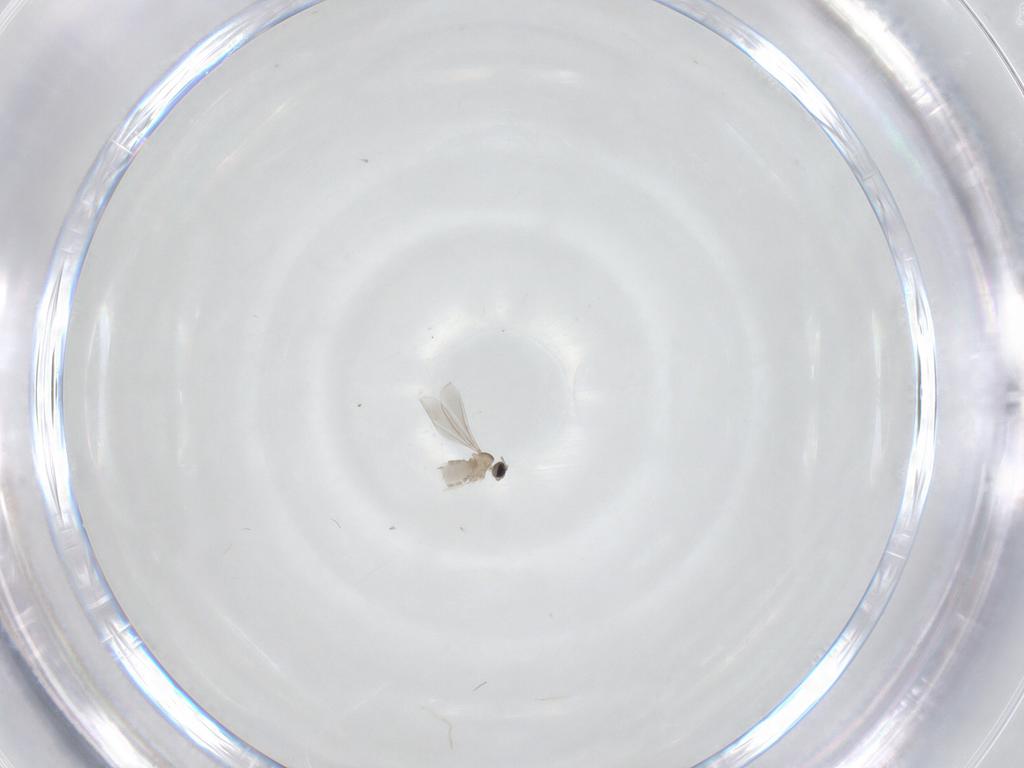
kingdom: Animalia
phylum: Arthropoda
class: Insecta
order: Diptera
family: Cecidomyiidae
